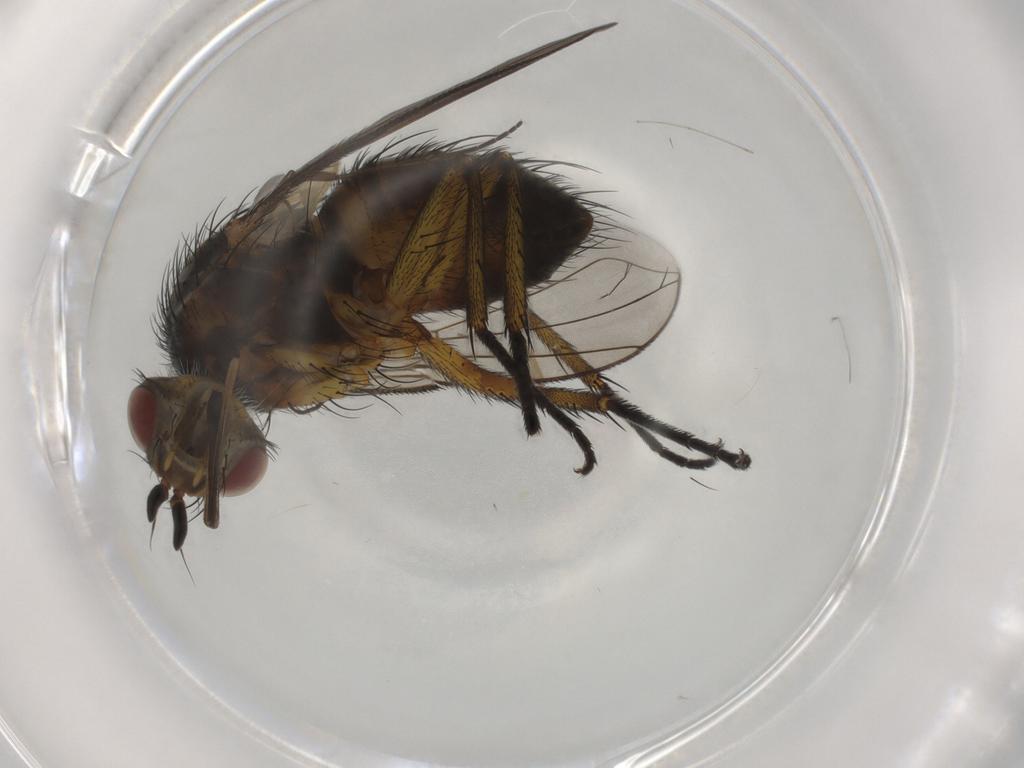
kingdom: Animalia
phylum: Arthropoda
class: Insecta
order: Diptera
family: Tachinidae
